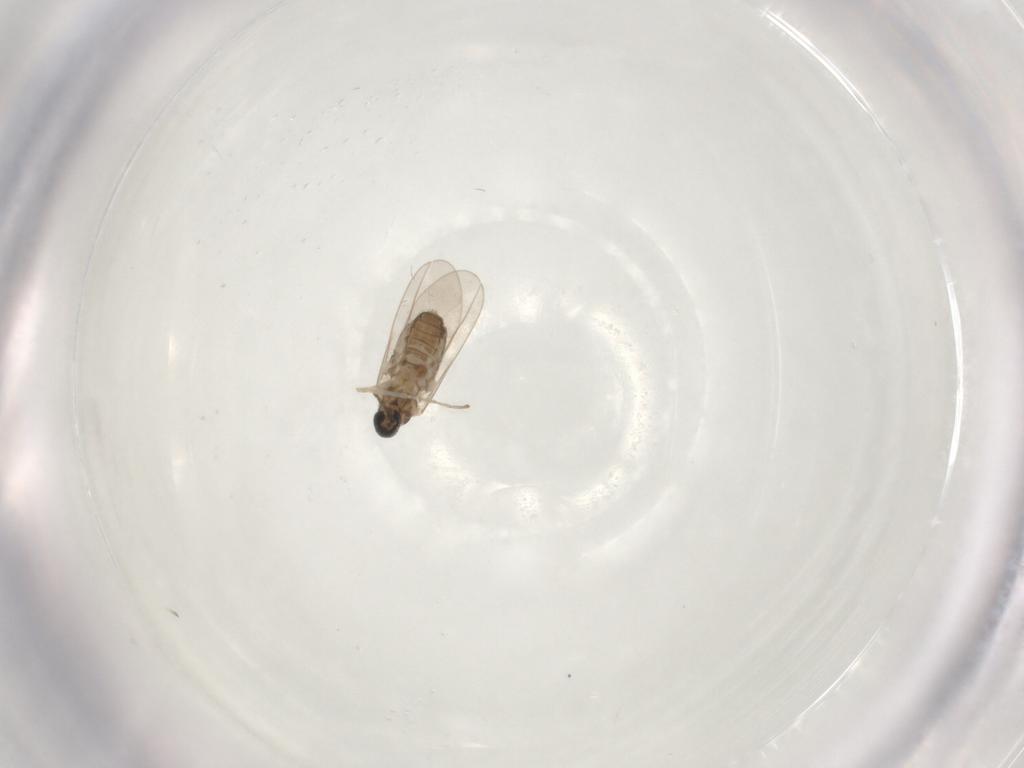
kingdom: Animalia
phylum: Arthropoda
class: Insecta
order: Diptera
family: Cecidomyiidae
